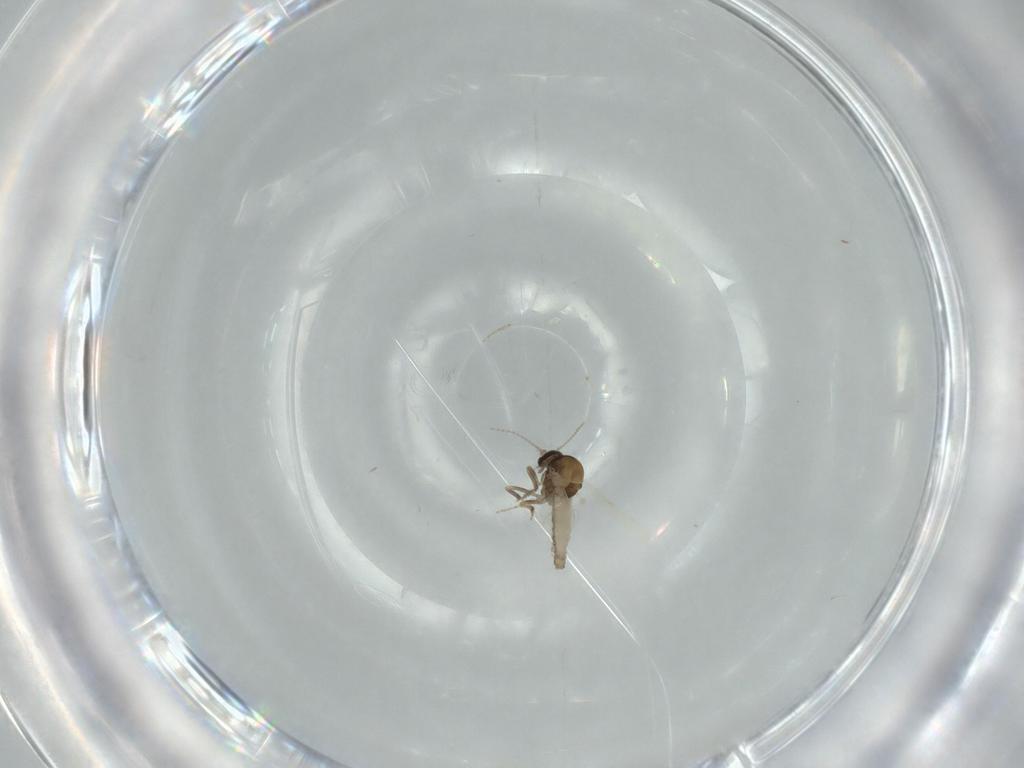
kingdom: Animalia
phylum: Arthropoda
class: Insecta
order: Diptera
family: Ceratopogonidae
